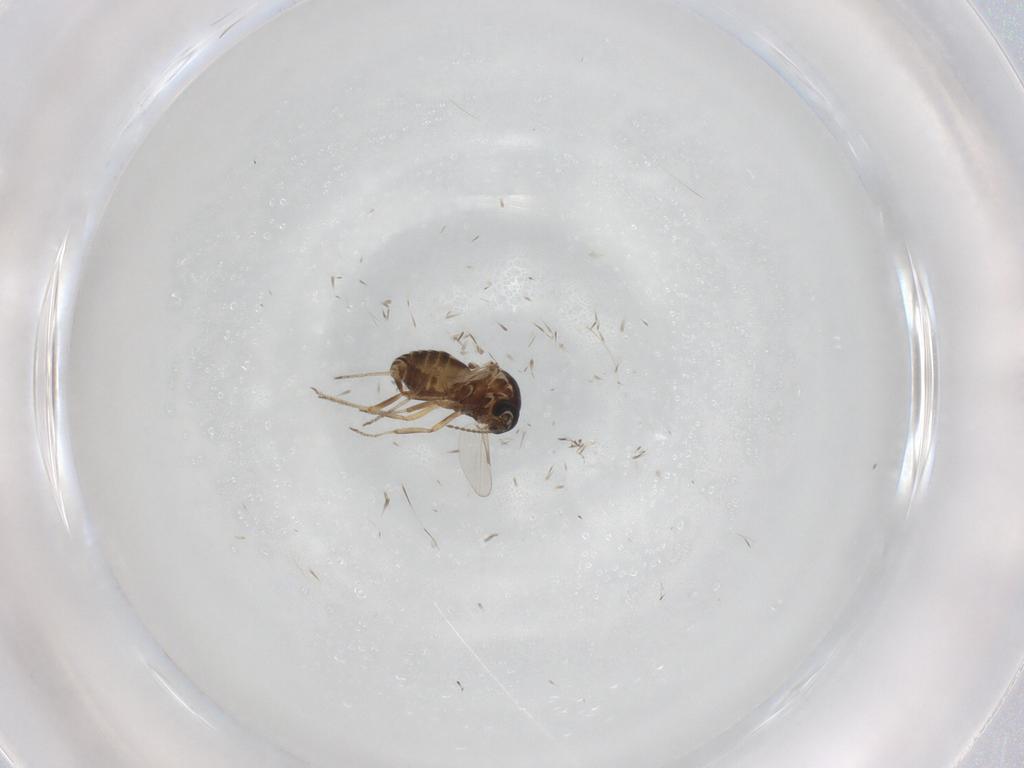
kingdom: Animalia
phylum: Arthropoda
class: Insecta
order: Diptera
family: Ceratopogonidae
